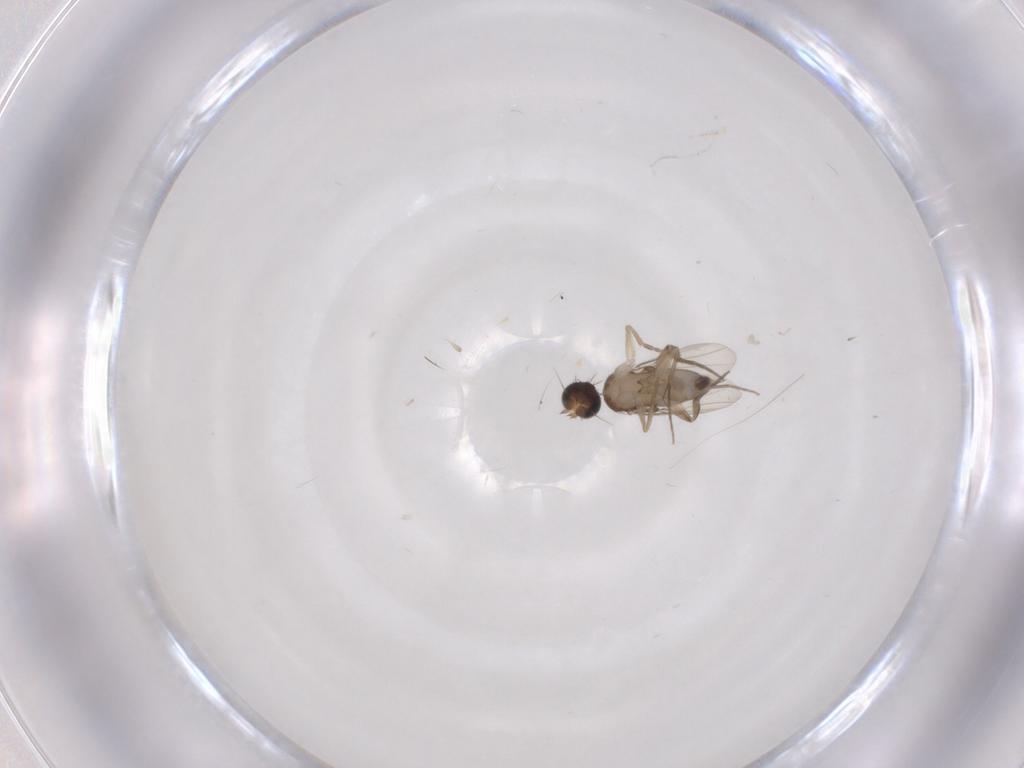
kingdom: Animalia
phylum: Arthropoda
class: Insecta
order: Diptera
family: Phoridae
